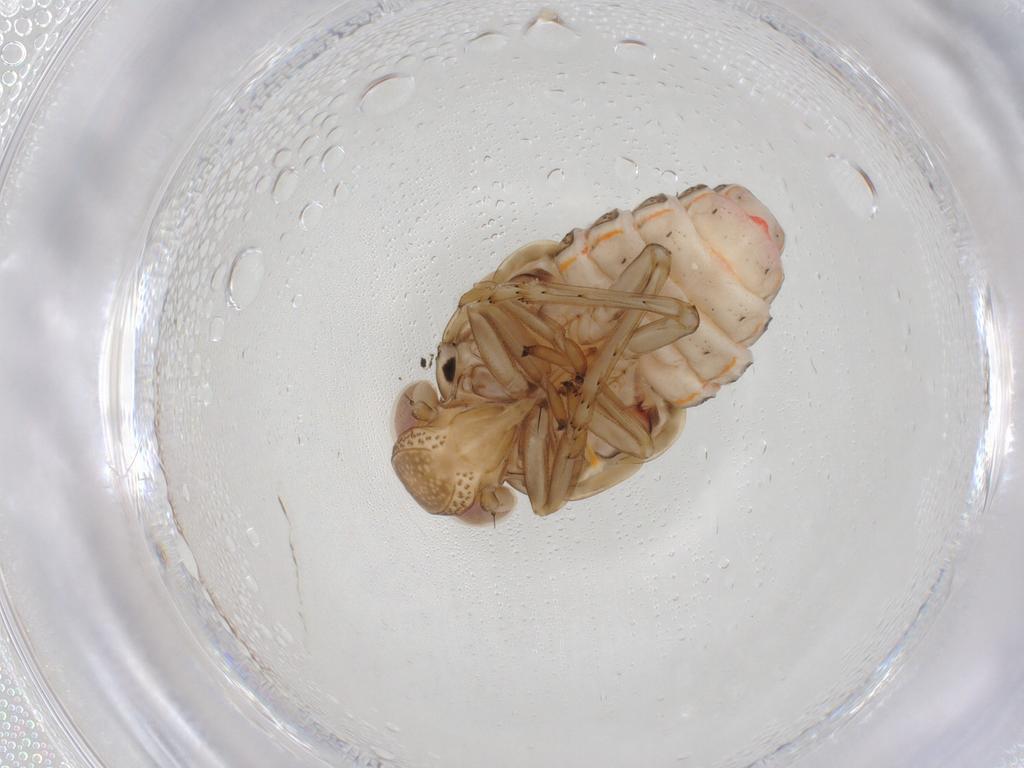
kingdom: Animalia
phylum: Arthropoda
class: Insecta
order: Hemiptera
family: Issidae
